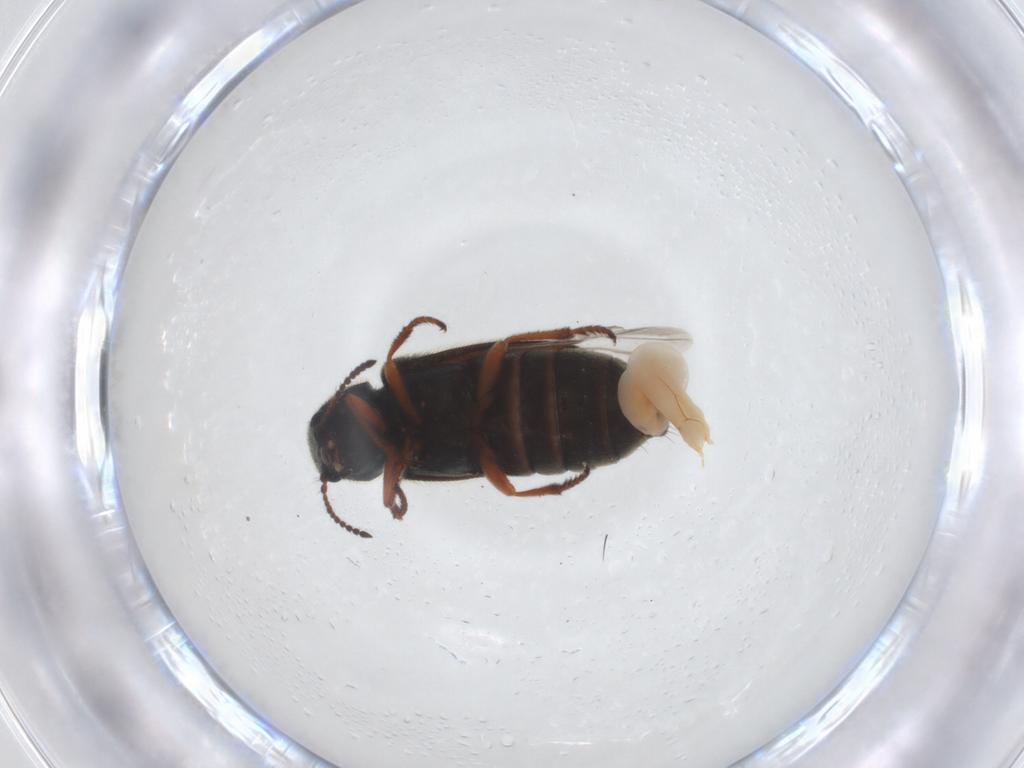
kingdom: Animalia
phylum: Arthropoda
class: Insecta
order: Coleoptera
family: Melyridae
